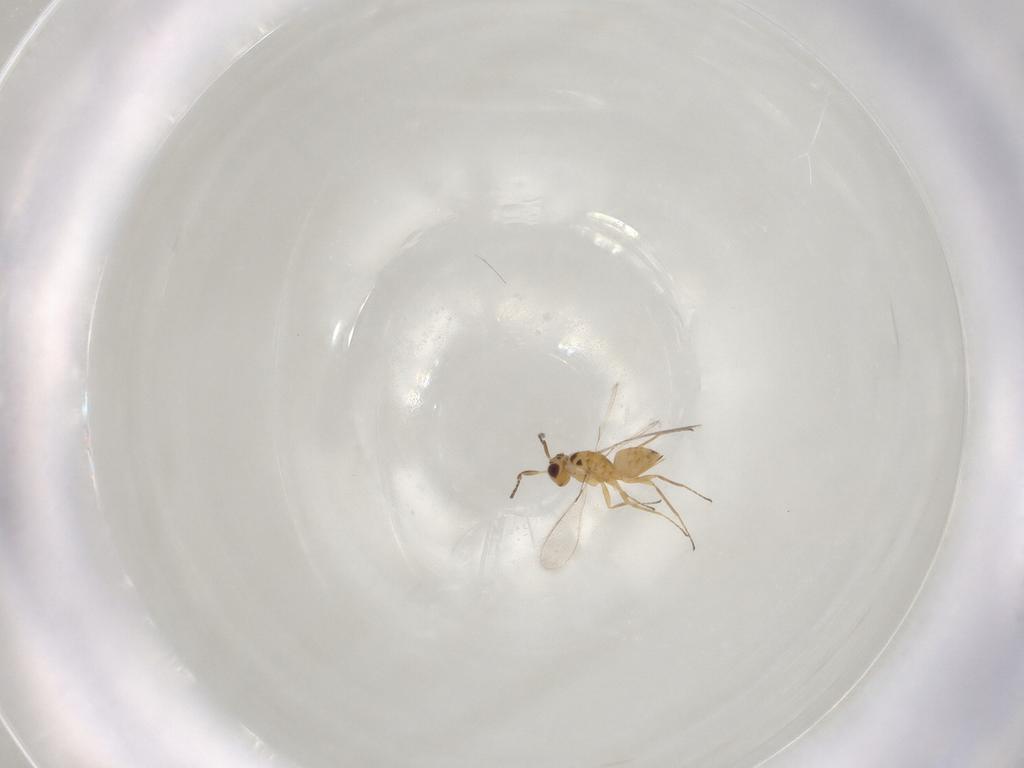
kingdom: Animalia
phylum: Arthropoda
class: Insecta
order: Hymenoptera
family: Mymaridae
